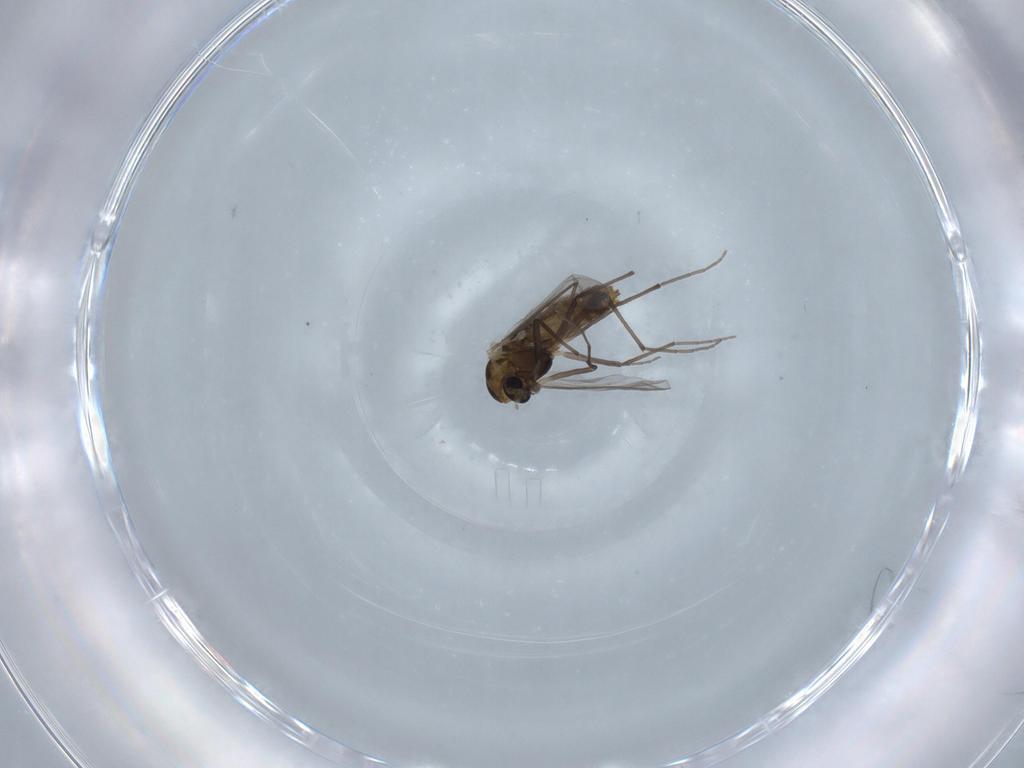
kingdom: Animalia
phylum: Arthropoda
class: Insecta
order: Diptera
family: Chironomidae
